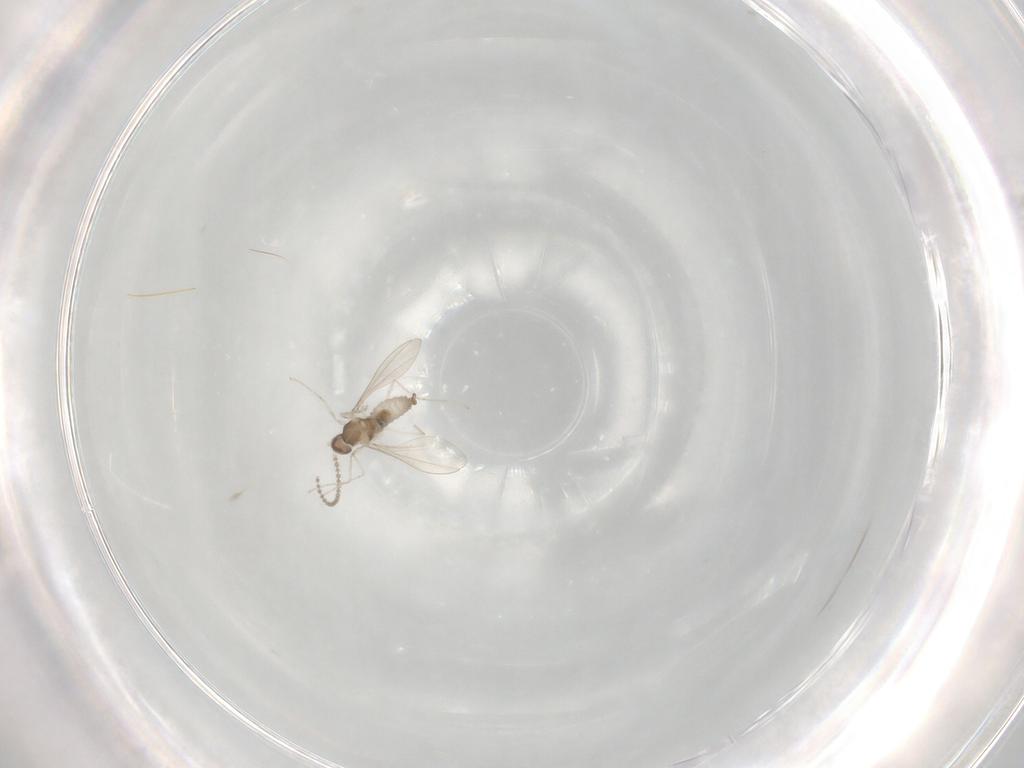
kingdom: Animalia
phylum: Arthropoda
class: Insecta
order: Diptera
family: Cecidomyiidae
